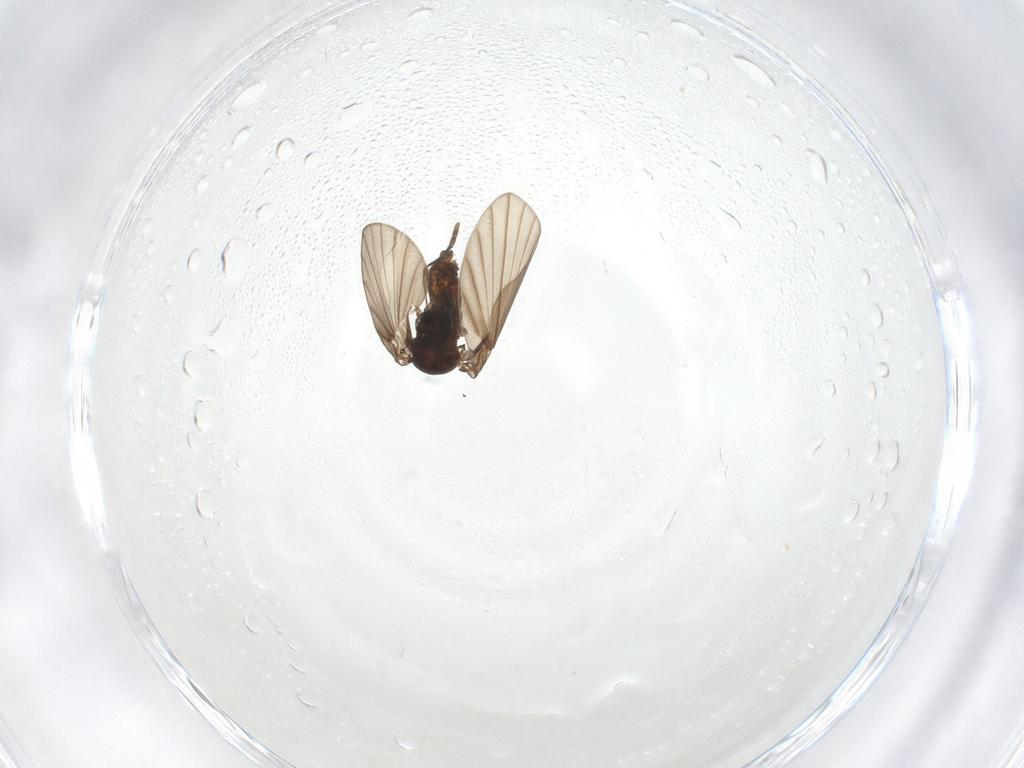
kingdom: Animalia
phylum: Arthropoda
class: Insecta
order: Diptera
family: Psychodidae
